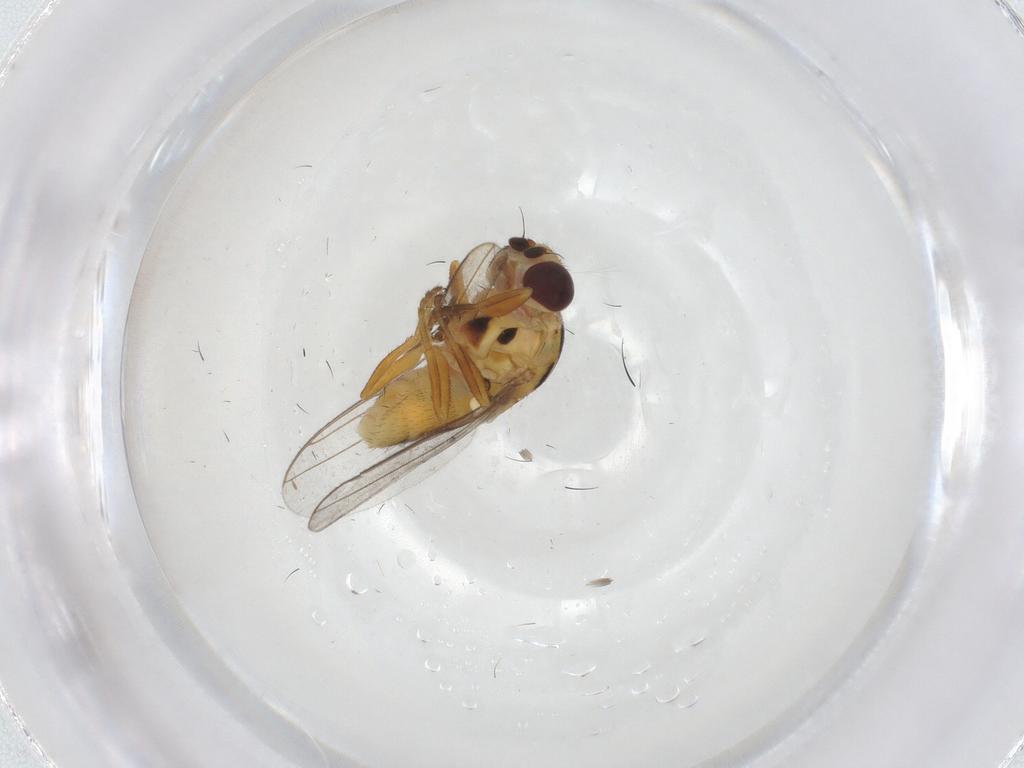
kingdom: Animalia
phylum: Arthropoda
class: Insecta
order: Diptera
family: Chloropidae
